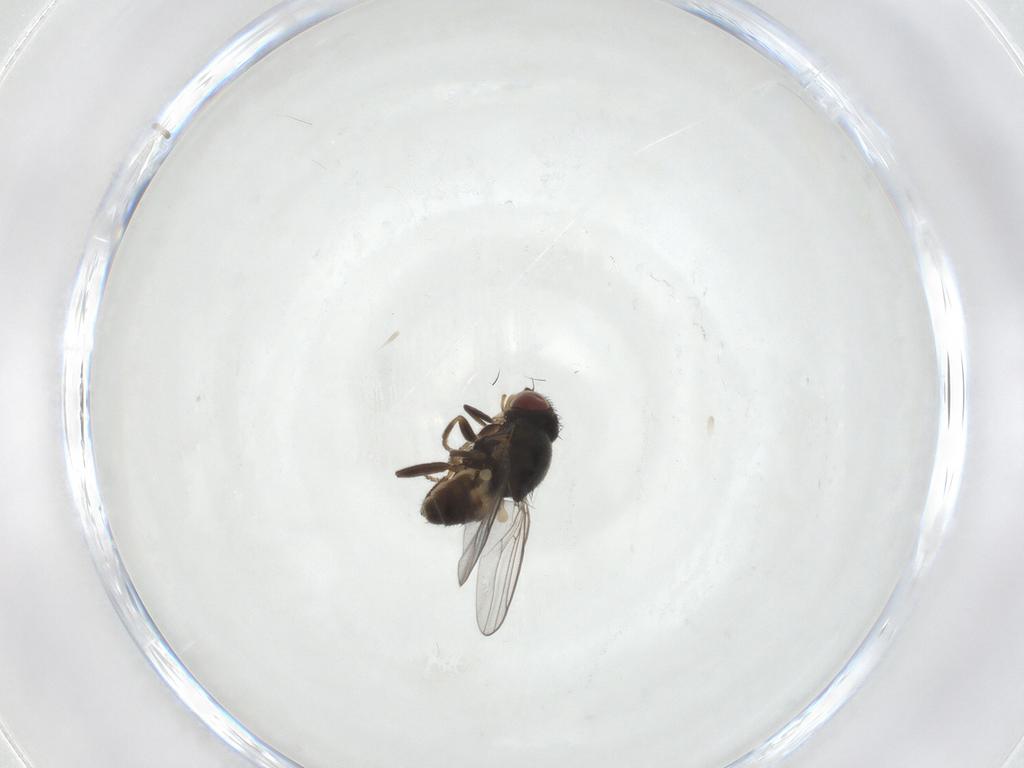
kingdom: Animalia
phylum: Arthropoda
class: Insecta
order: Diptera
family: Chloropidae
